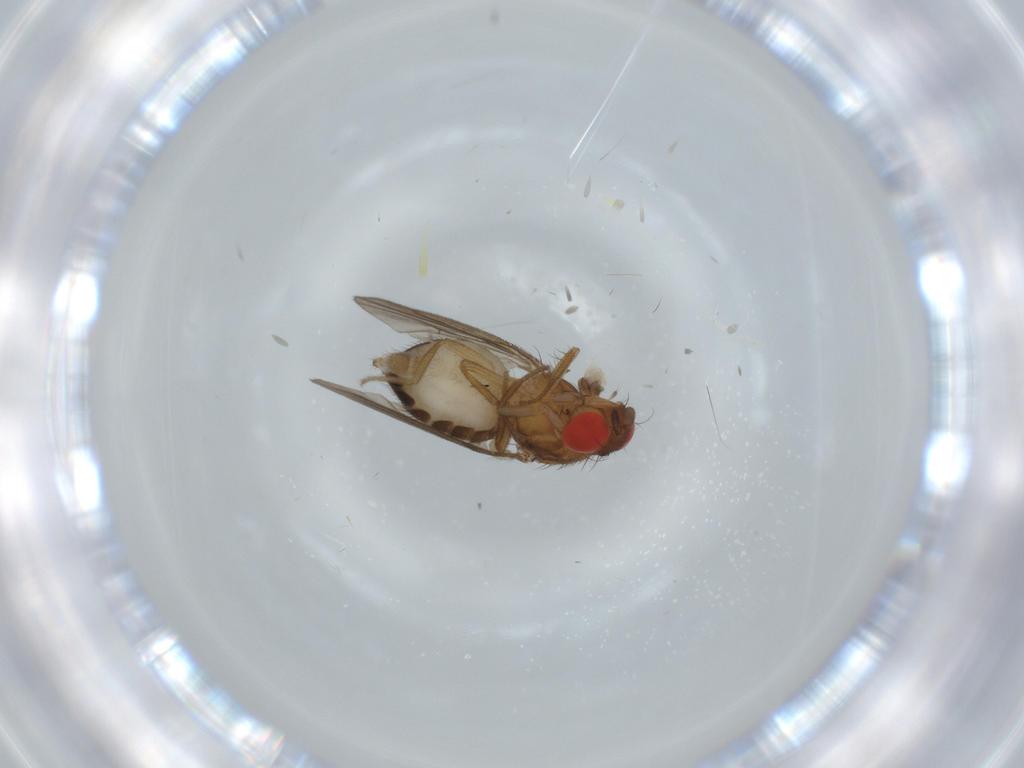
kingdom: Animalia
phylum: Arthropoda
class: Insecta
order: Diptera
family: Drosophilidae
